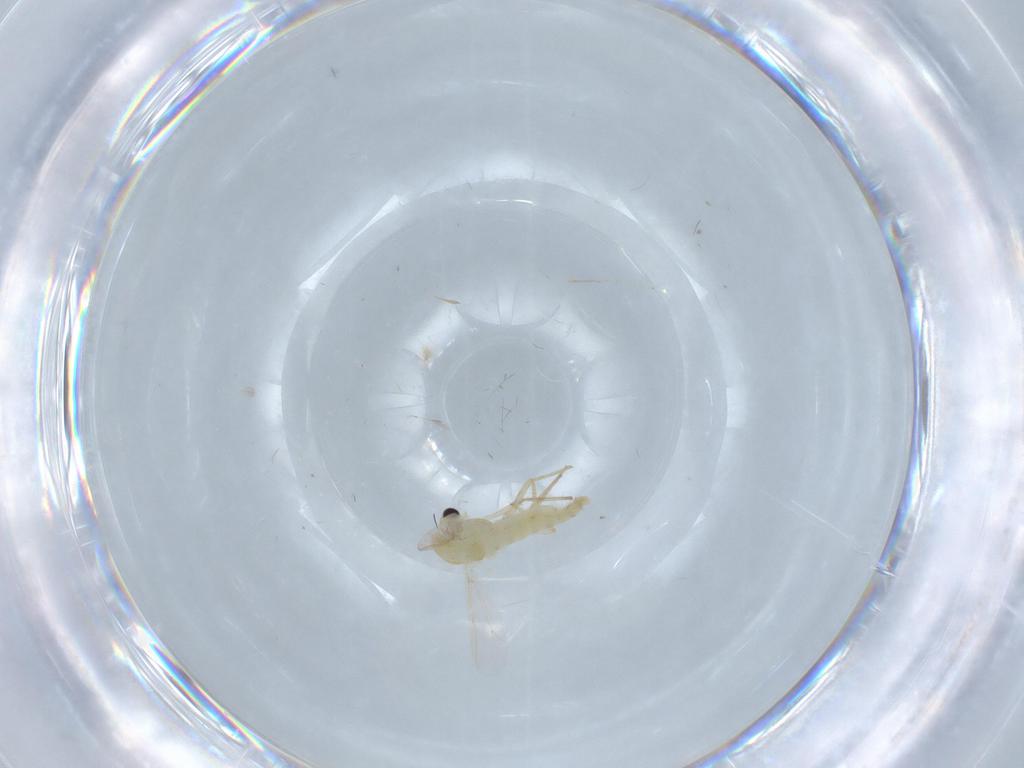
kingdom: Animalia
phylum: Arthropoda
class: Insecta
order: Diptera
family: Chironomidae
